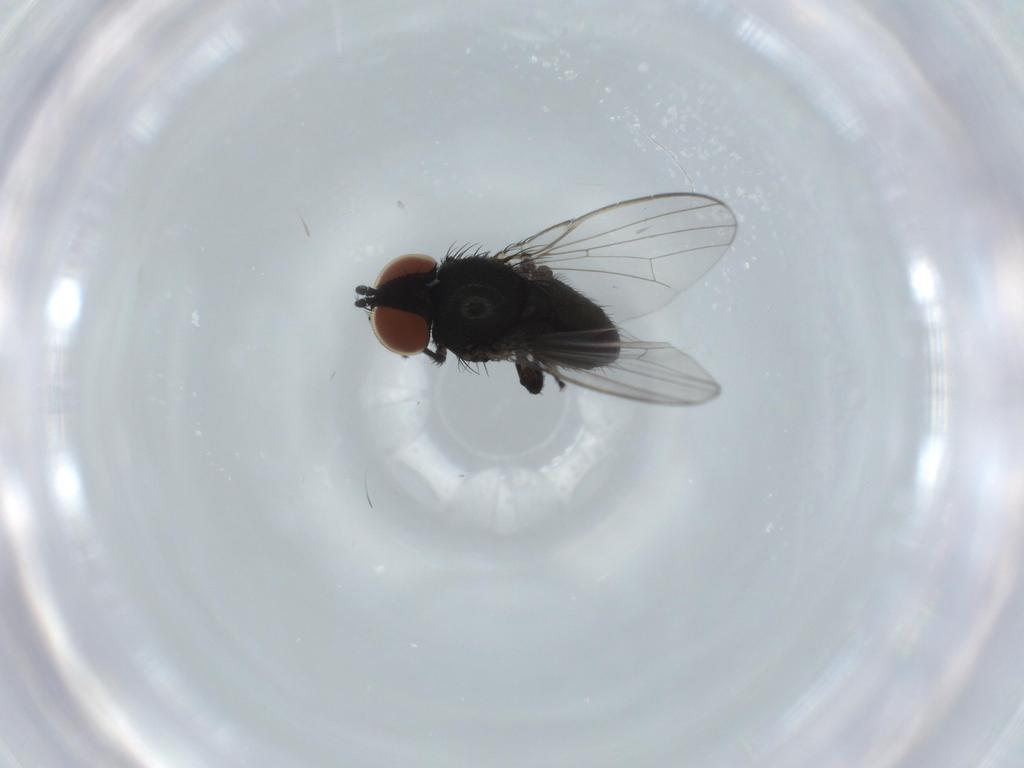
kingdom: Animalia
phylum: Arthropoda
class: Insecta
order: Diptera
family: Milichiidae
